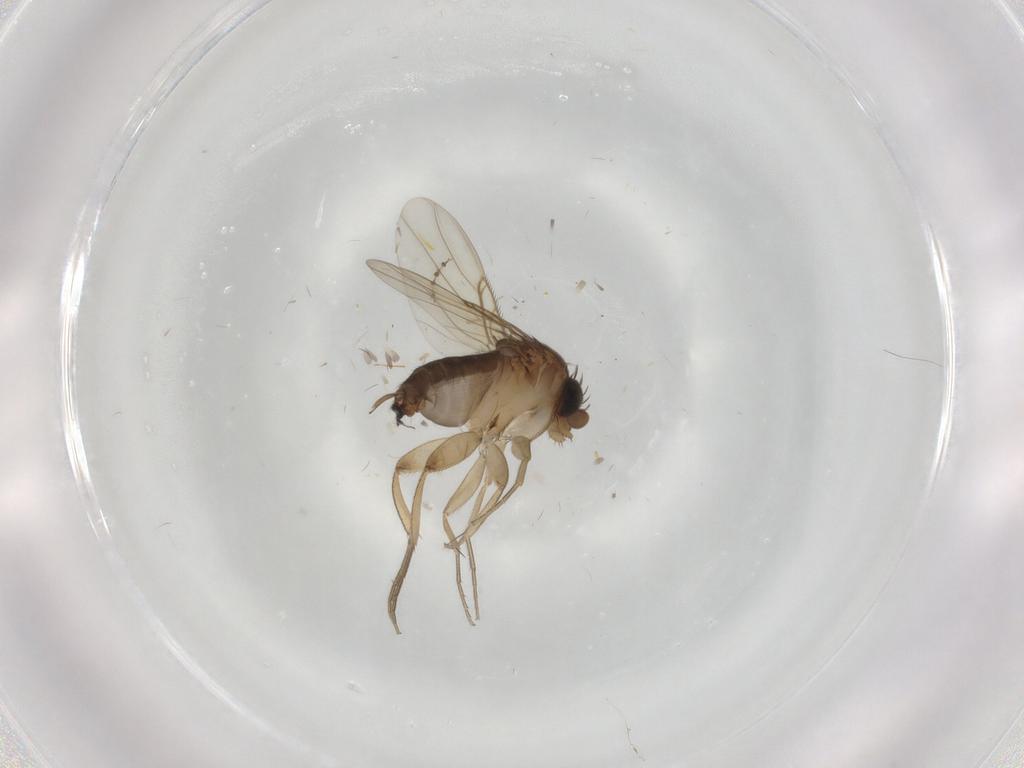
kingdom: Animalia
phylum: Arthropoda
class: Insecta
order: Diptera
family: Phoridae
